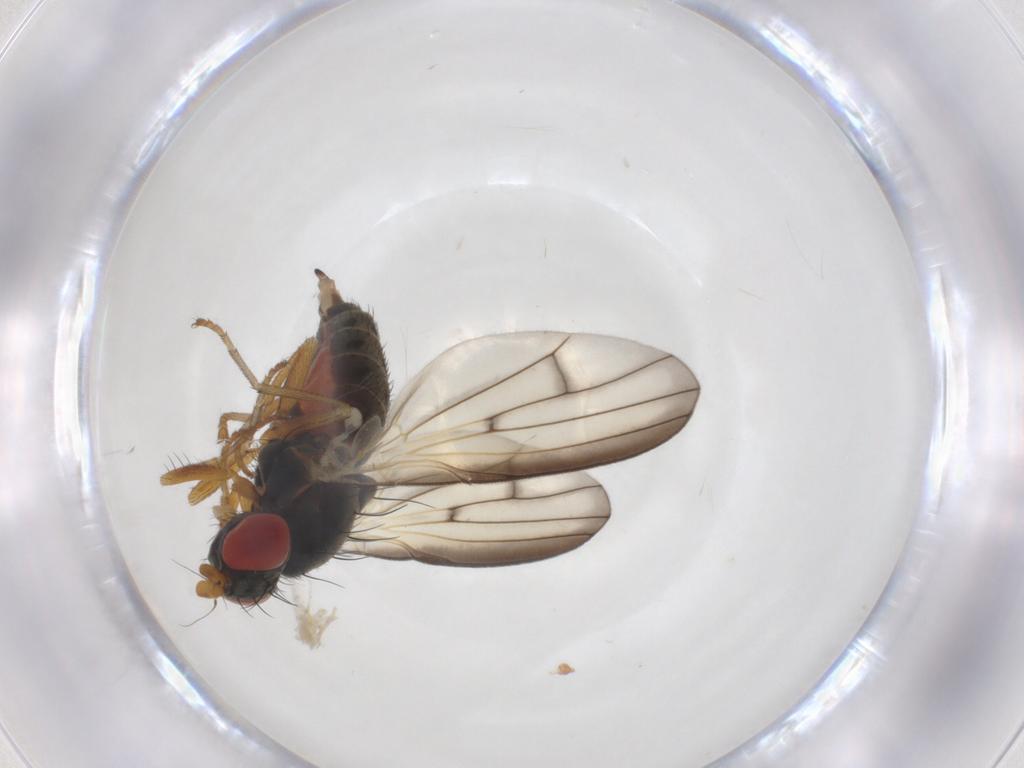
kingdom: Animalia
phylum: Arthropoda
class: Insecta
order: Diptera
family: Chamaemyiidae
